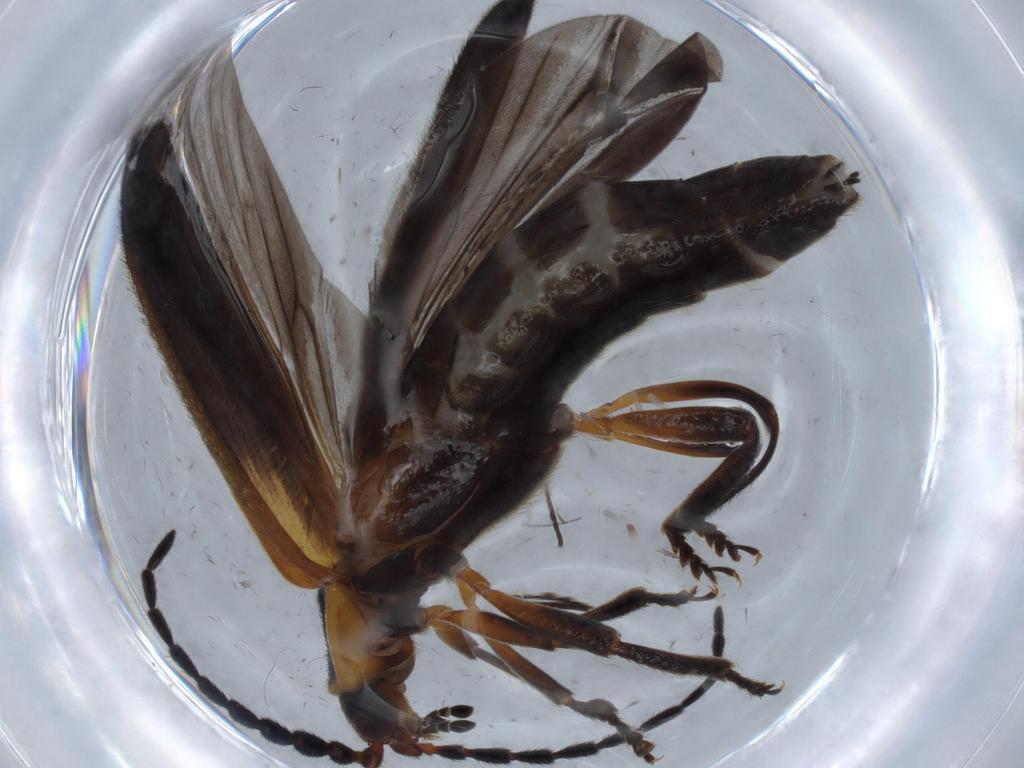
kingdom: Animalia
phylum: Arthropoda
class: Insecta
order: Coleoptera
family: Lycidae
